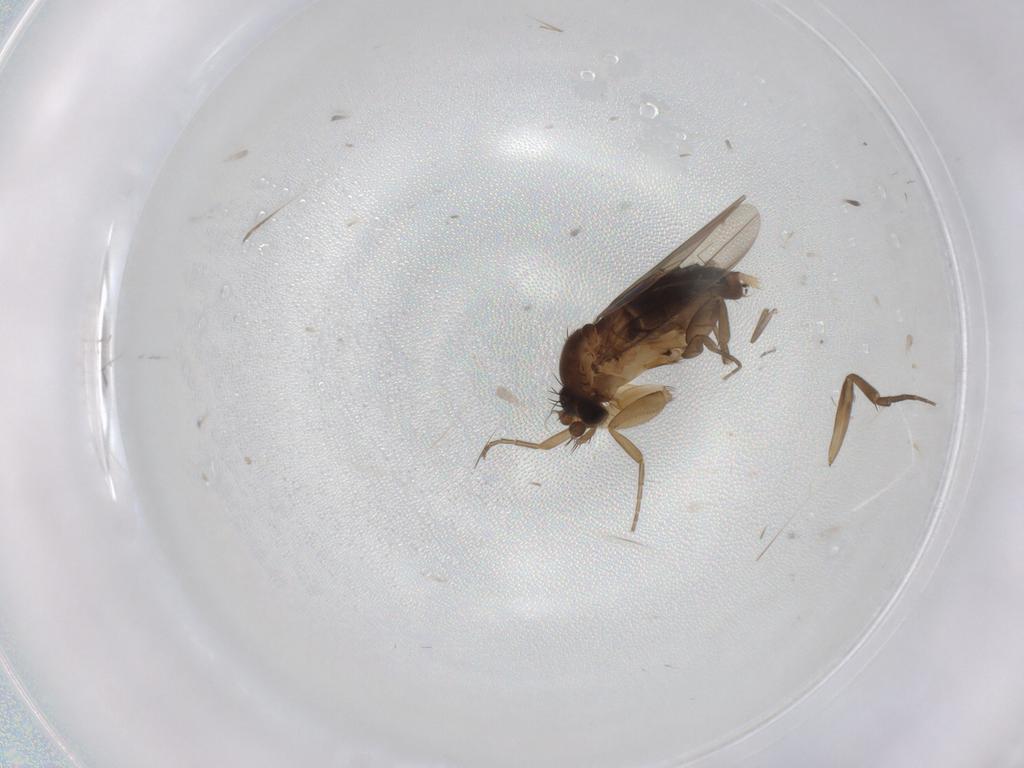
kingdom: Animalia
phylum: Arthropoda
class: Insecta
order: Diptera
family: Phoridae
